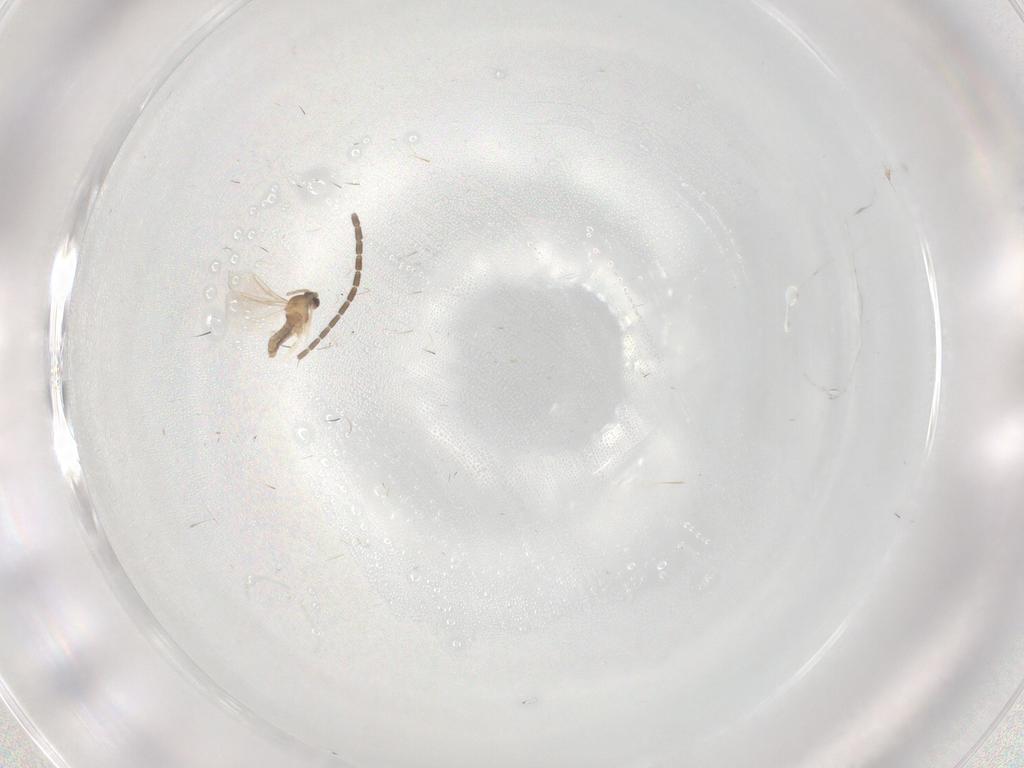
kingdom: Animalia
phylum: Arthropoda
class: Insecta
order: Diptera
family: Sciaridae
